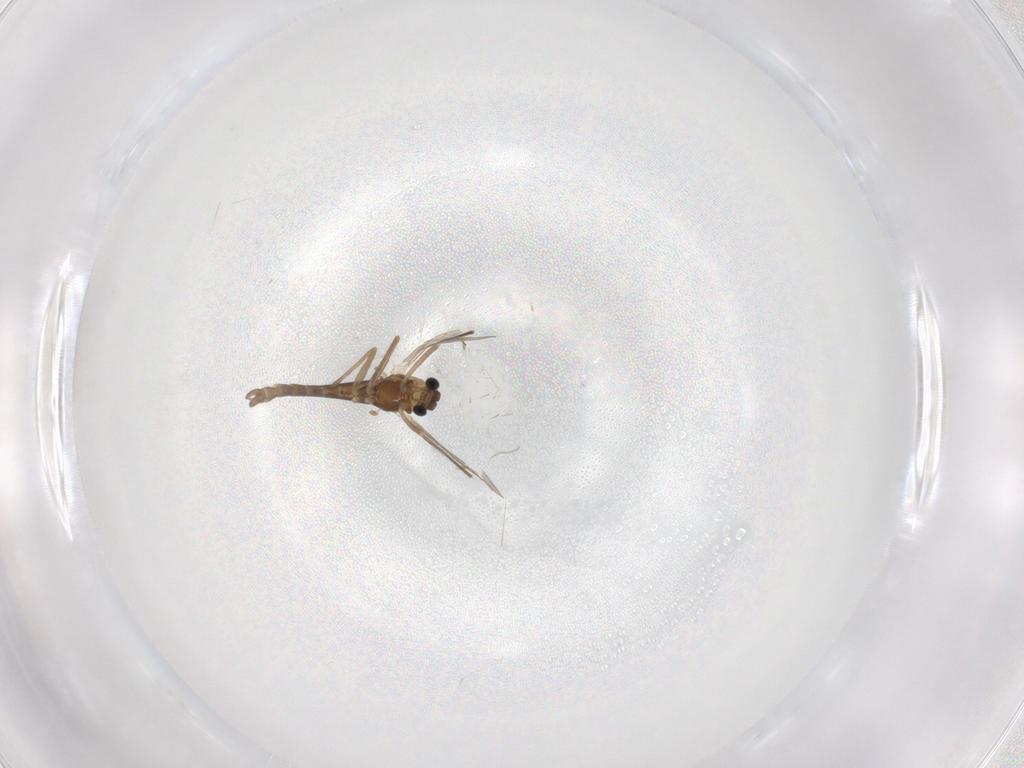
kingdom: Animalia
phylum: Arthropoda
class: Insecta
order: Diptera
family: Chironomidae
